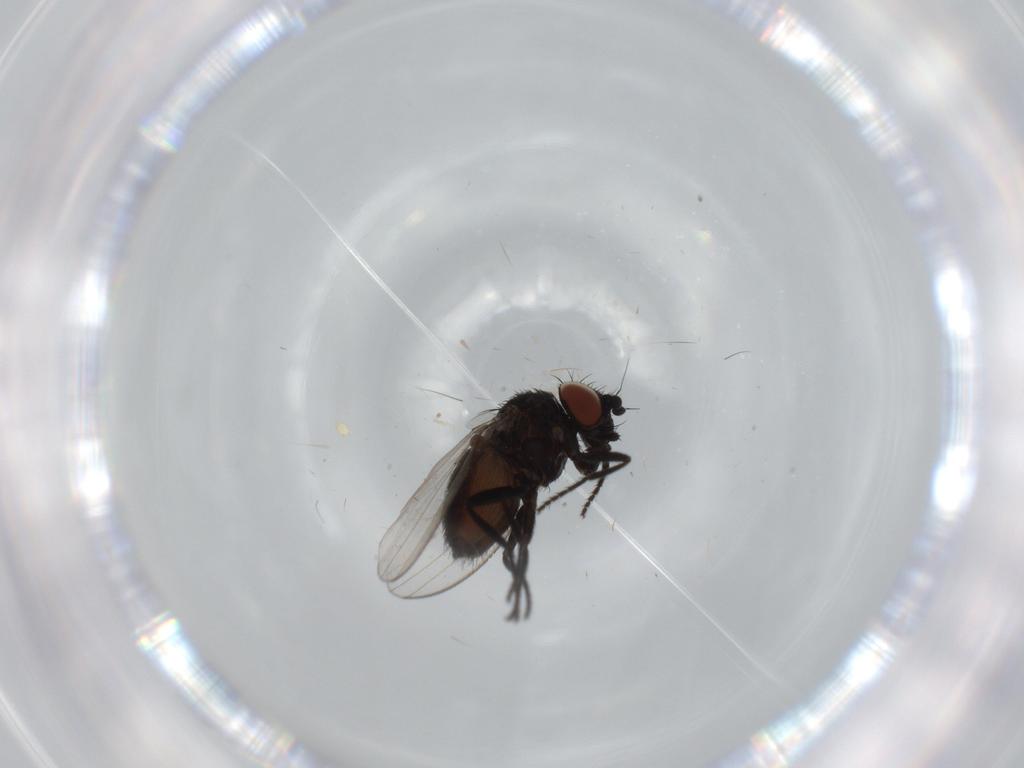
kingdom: Animalia
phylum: Arthropoda
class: Insecta
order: Diptera
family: Milichiidae
